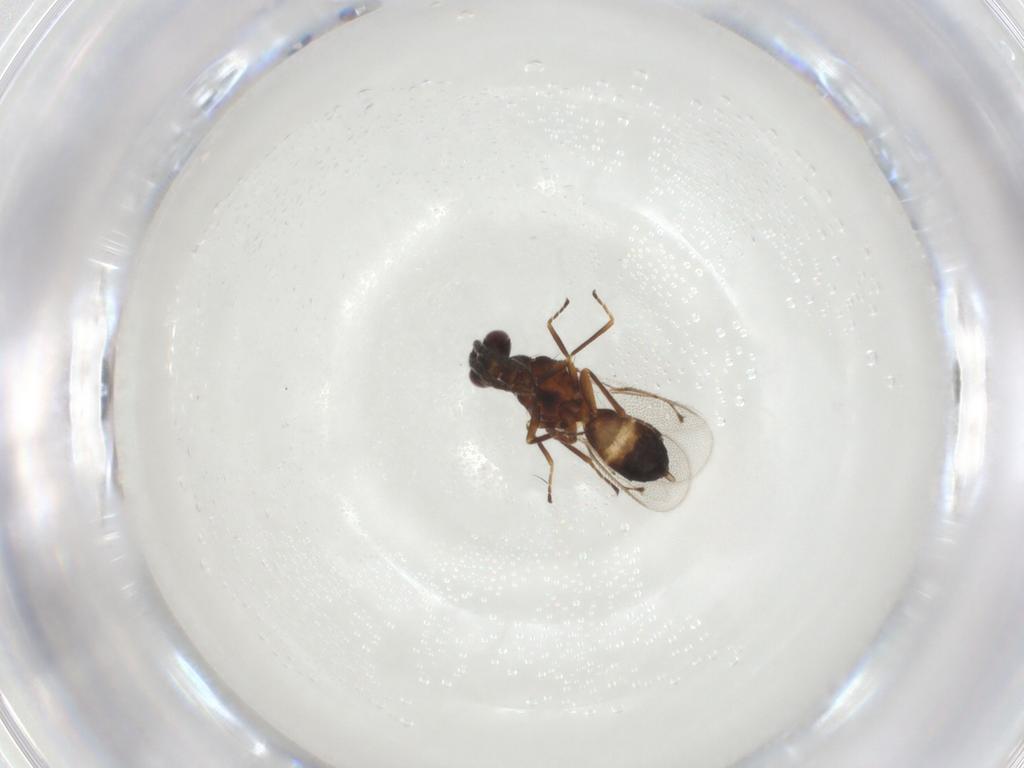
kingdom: Animalia
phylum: Arthropoda
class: Insecta
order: Hymenoptera
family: Eulophidae
